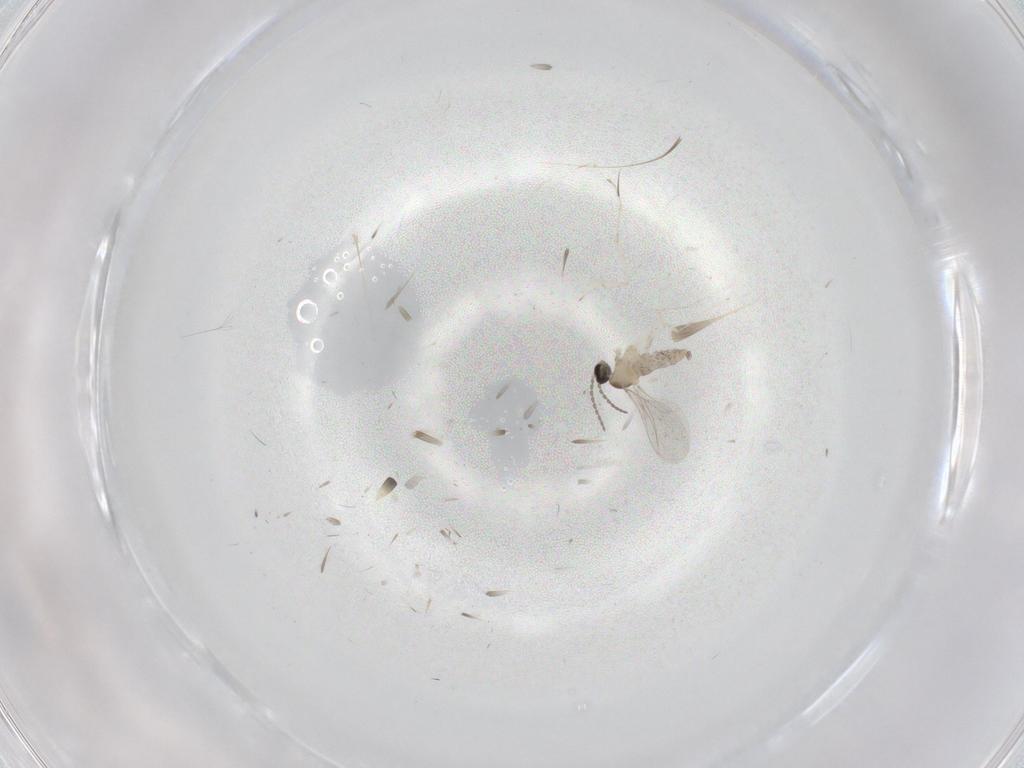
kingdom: Animalia
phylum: Arthropoda
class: Insecta
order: Diptera
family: Cecidomyiidae
